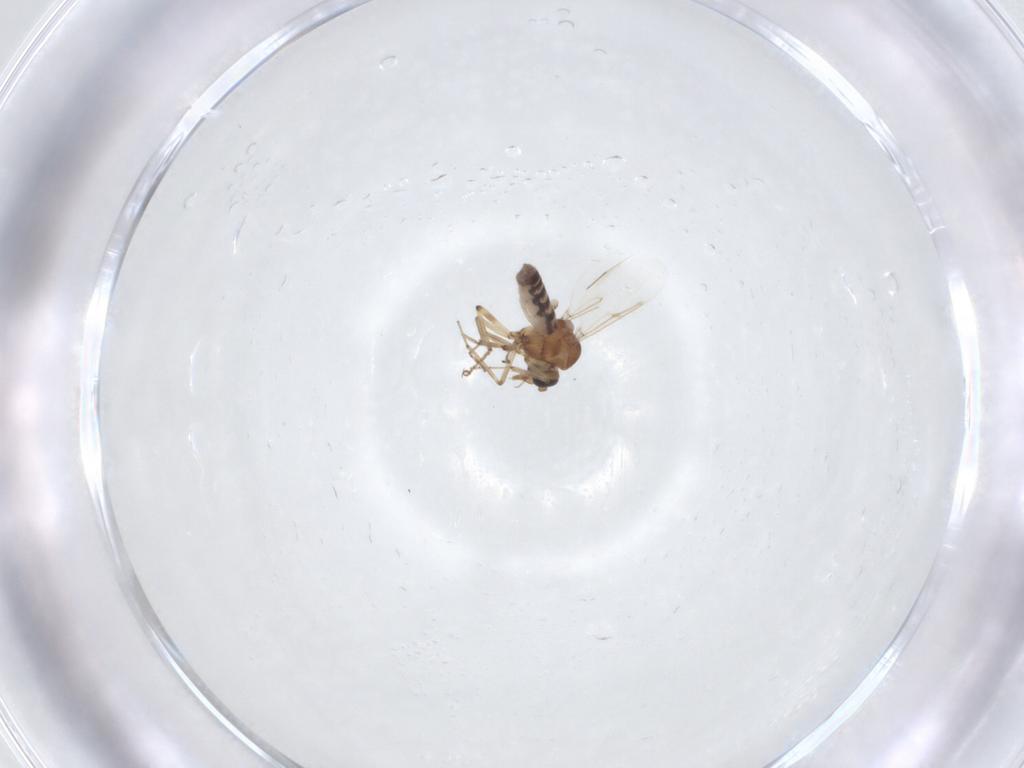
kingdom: Animalia
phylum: Arthropoda
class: Insecta
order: Diptera
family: Ceratopogonidae
